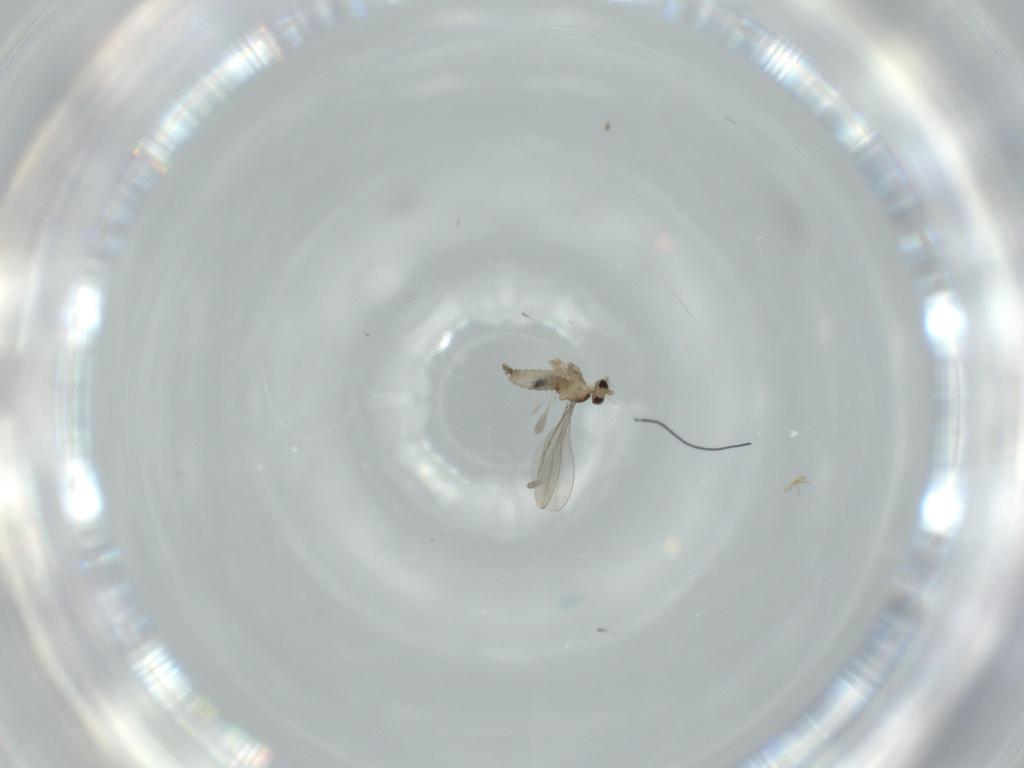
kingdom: Animalia
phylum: Arthropoda
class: Insecta
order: Diptera
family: Cecidomyiidae
